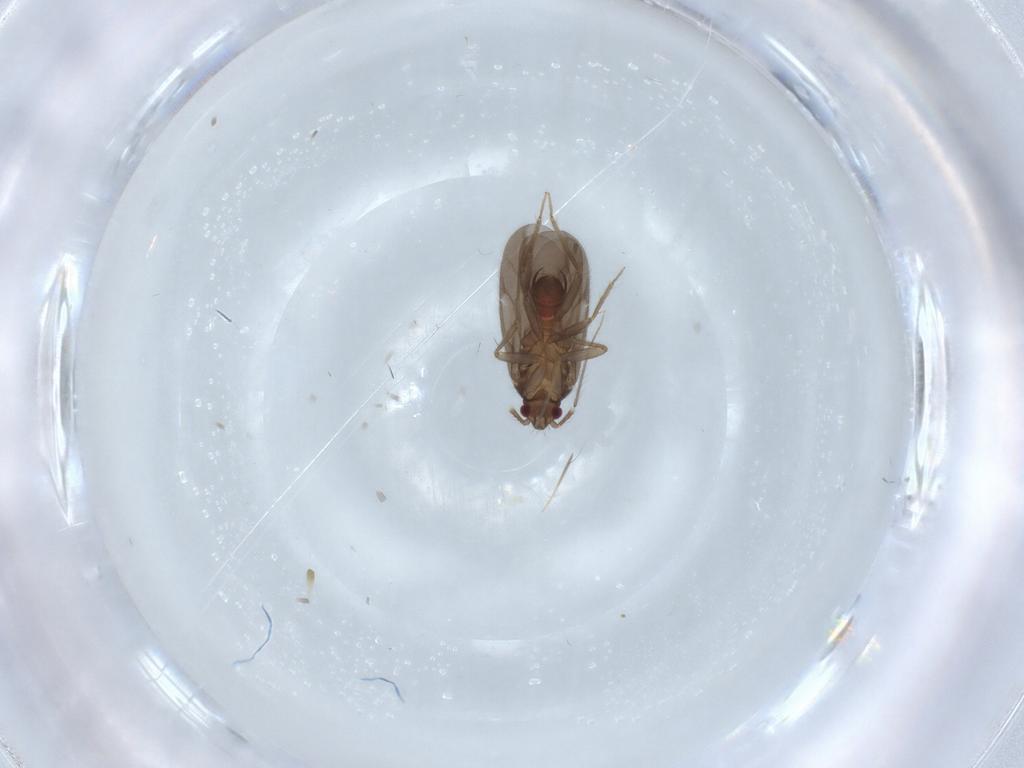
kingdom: Animalia
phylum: Arthropoda
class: Insecta
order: Hemiptera
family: Ceratocombidae
